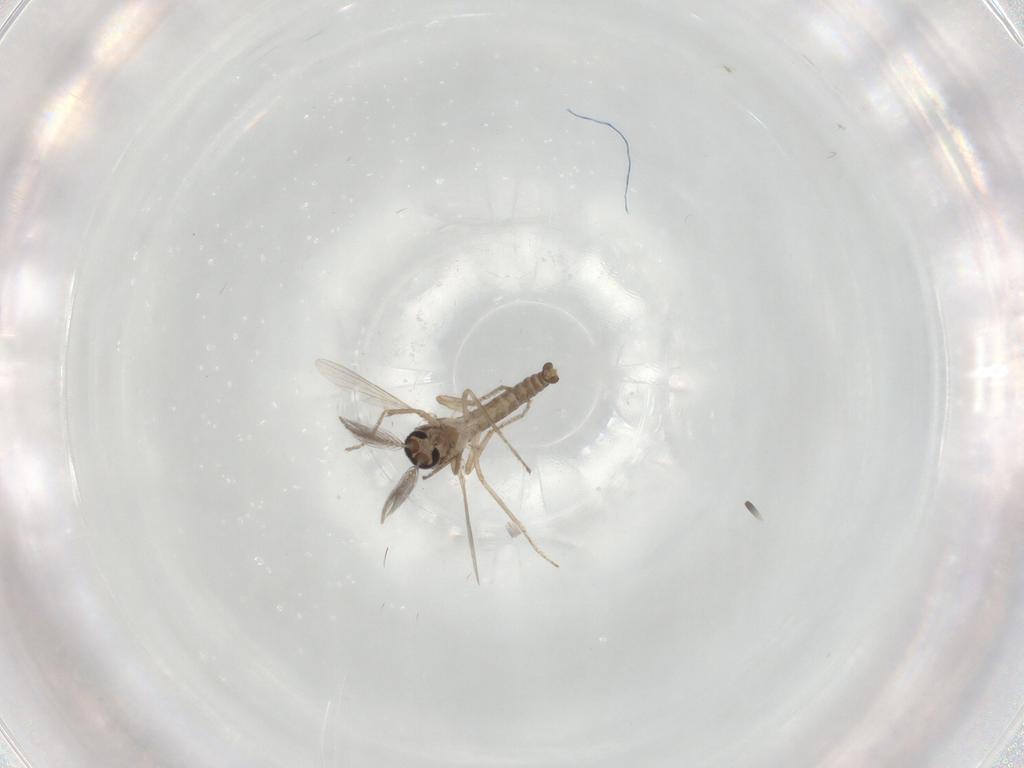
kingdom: Animalia
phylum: Arthropoda
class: Insecta
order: Diptera
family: Ceratopogonidae
